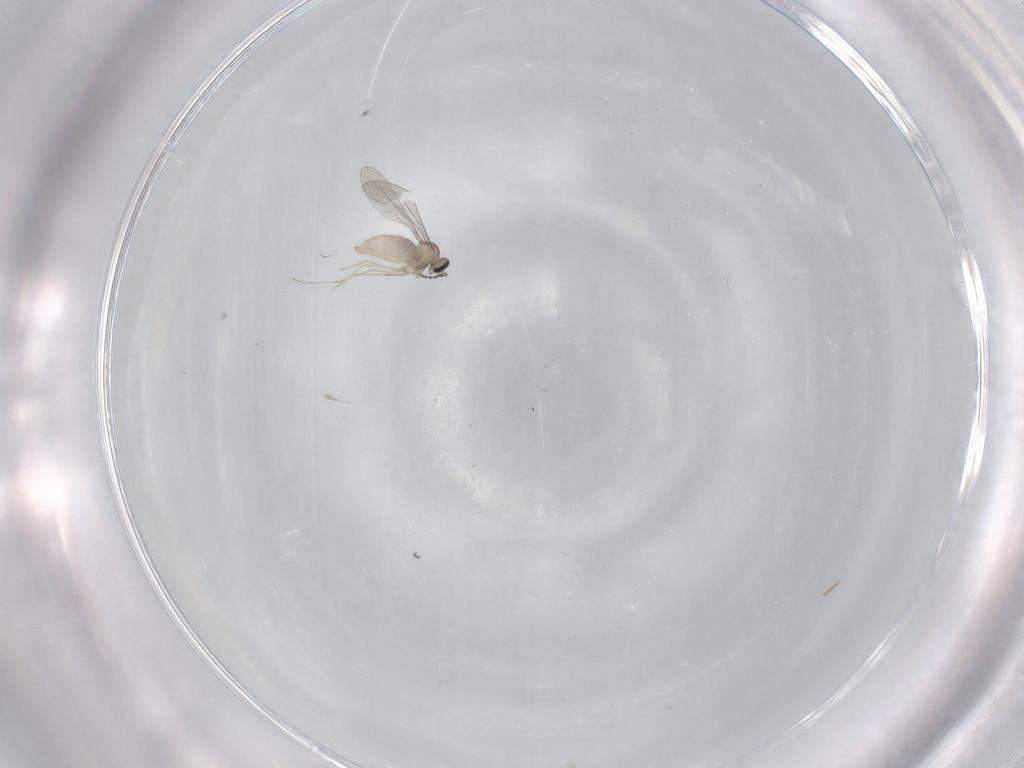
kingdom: Animalia
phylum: Arthropoda
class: Insecta
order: Diptera
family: Cecidomyiidae
